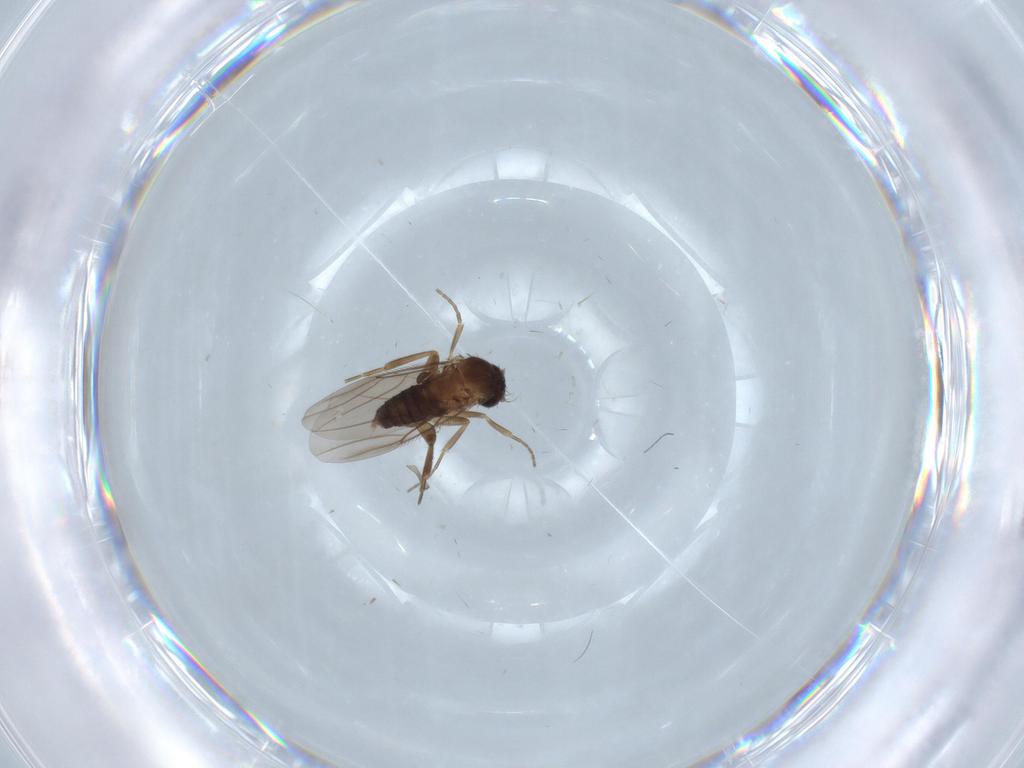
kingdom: Animalia
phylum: Arthropoda
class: Insecta
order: Diptera
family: Phoridae
